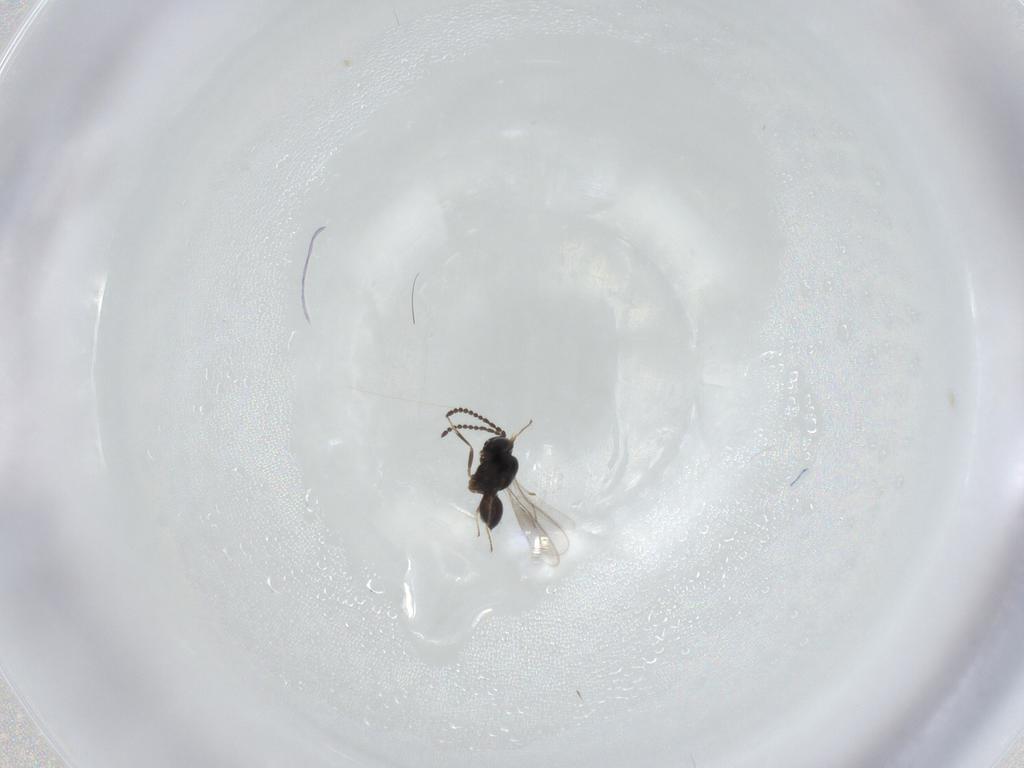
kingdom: Animalia
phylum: Arthropoda
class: Insecta
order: Hymenoptera
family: Scelionidae
